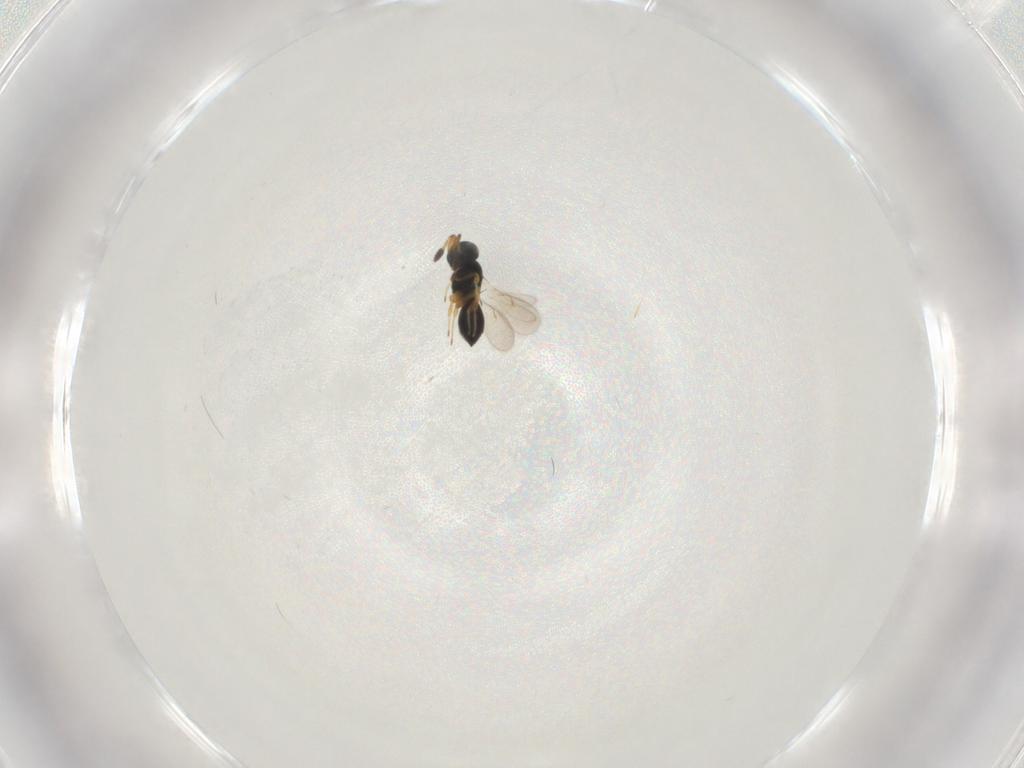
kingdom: Animalia
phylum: Arthropoda
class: Insecta
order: Hymenoptera
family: Scelionidae
